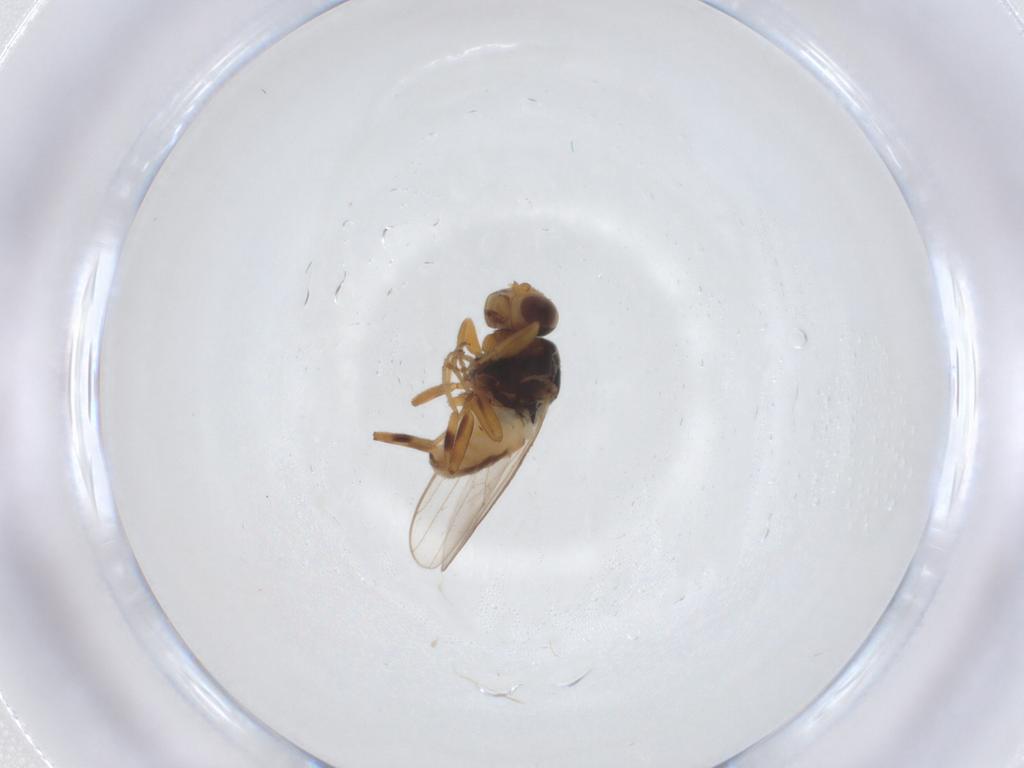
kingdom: Animalia
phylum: Arthropoda
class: Insecta
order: Diptera
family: Chloropidae
